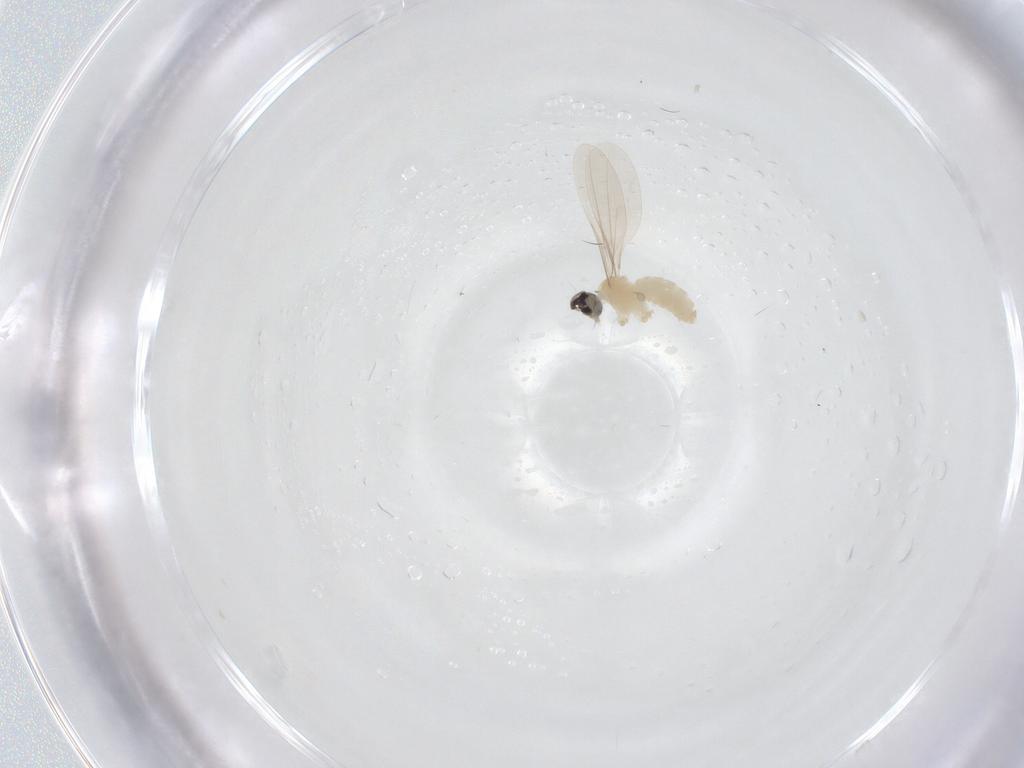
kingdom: Animalia
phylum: Arthropoda
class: Insecta
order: Diptera
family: Cecidomyiidae
